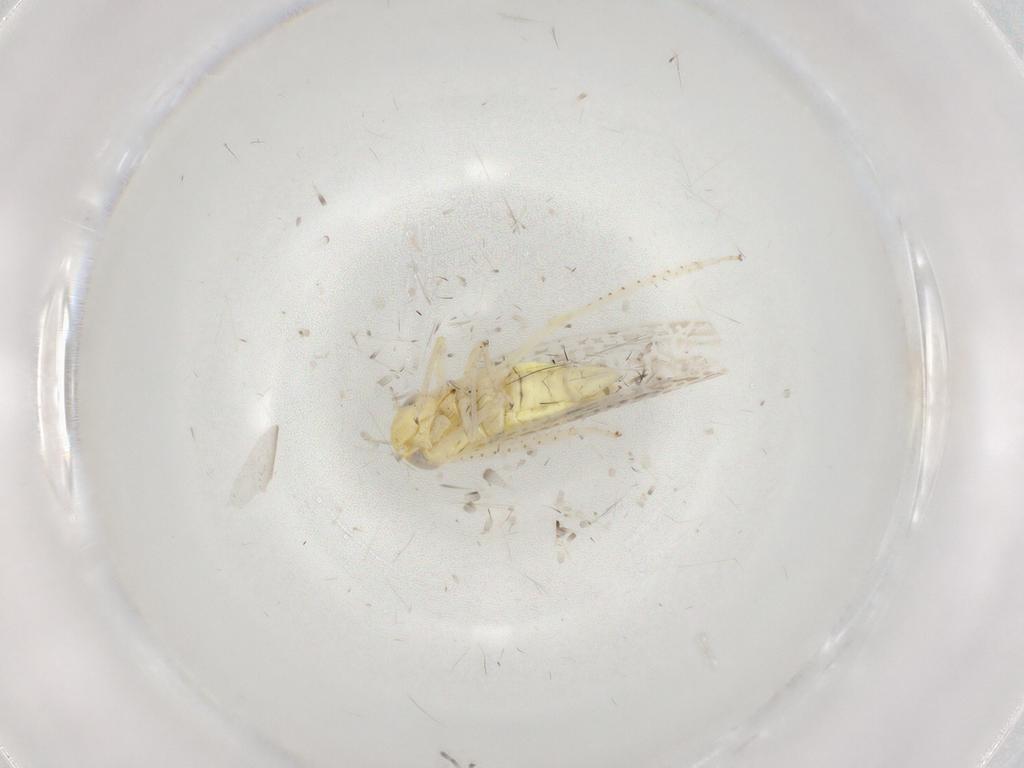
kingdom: Animalia
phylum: Arthropoda
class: Insecta
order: Hemiptera
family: Cicadellidae
